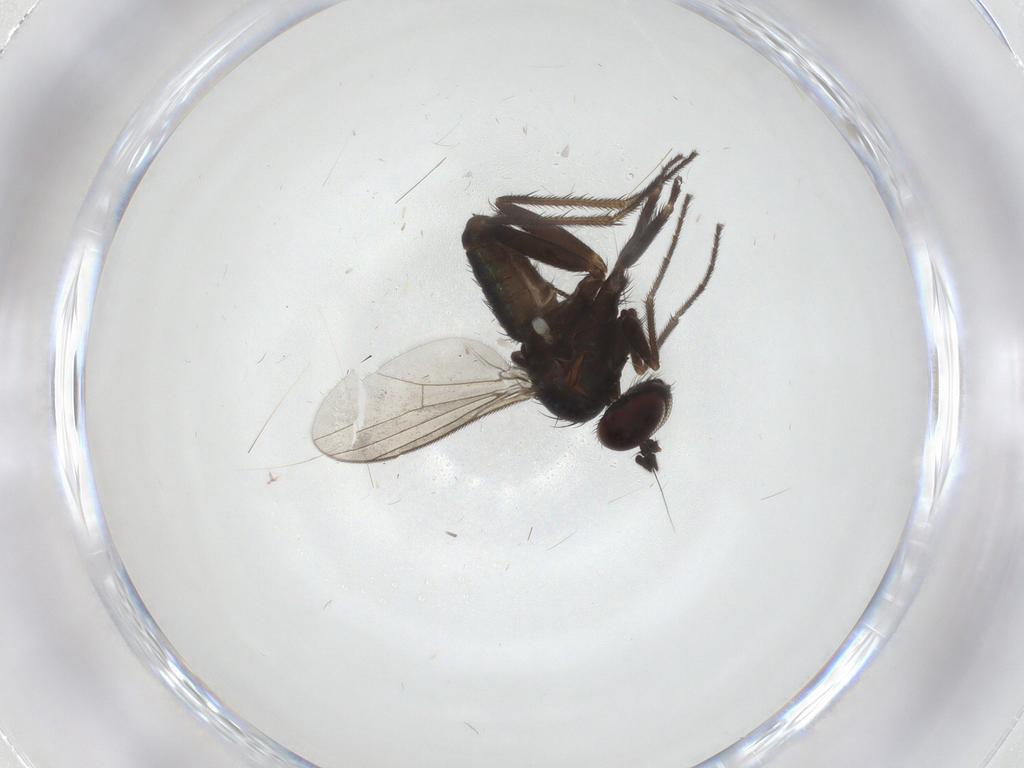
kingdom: Animalia
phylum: Arthropoda
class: Insecta
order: Diptera
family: Dolichopodidae
